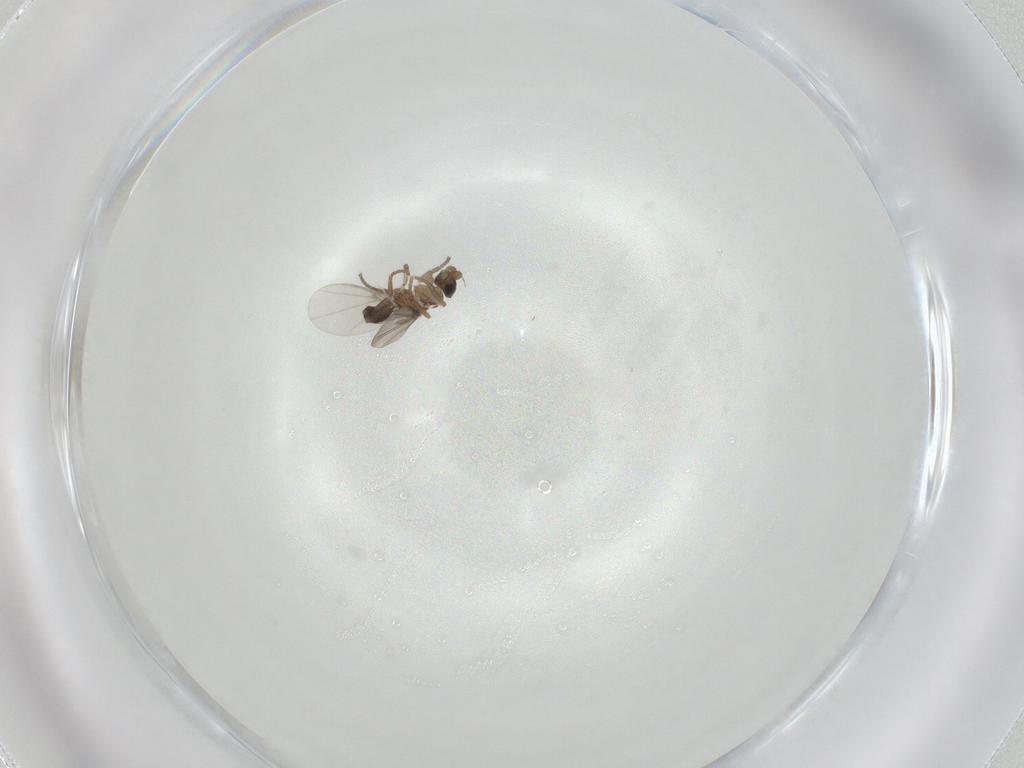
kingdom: Animalia
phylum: Arthropoda
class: Insecta
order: Diptera
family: Phoridae
